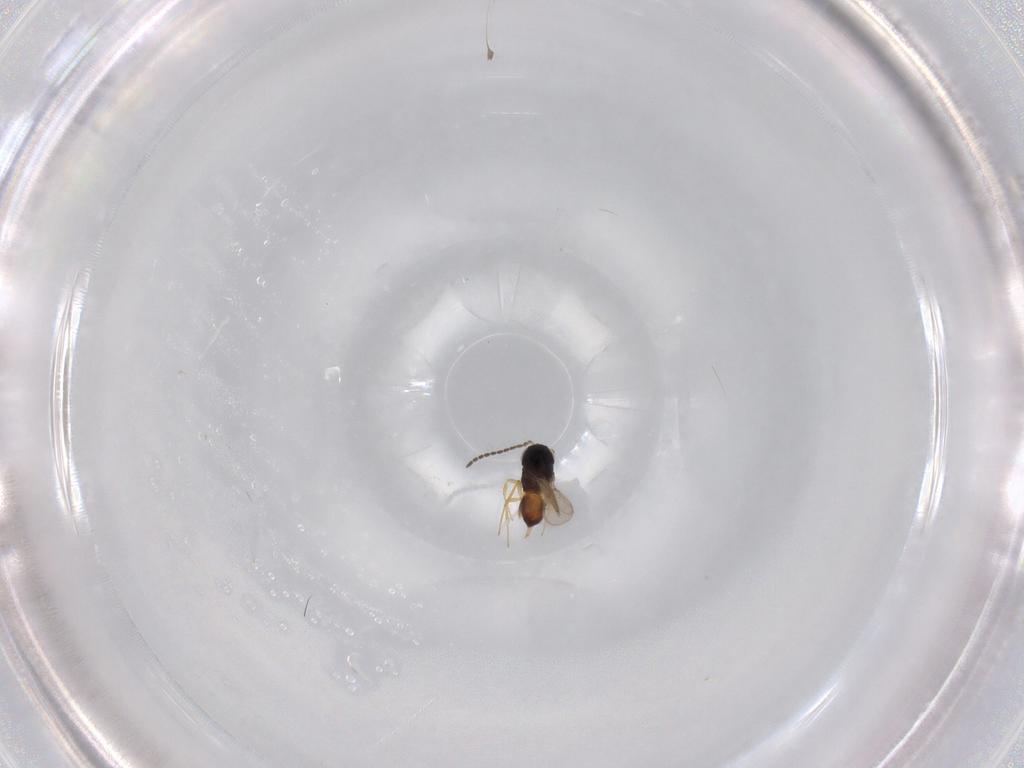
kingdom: Animalia
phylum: Arthropoda
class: Insecta
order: Hymenoptera
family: Scelionidae
